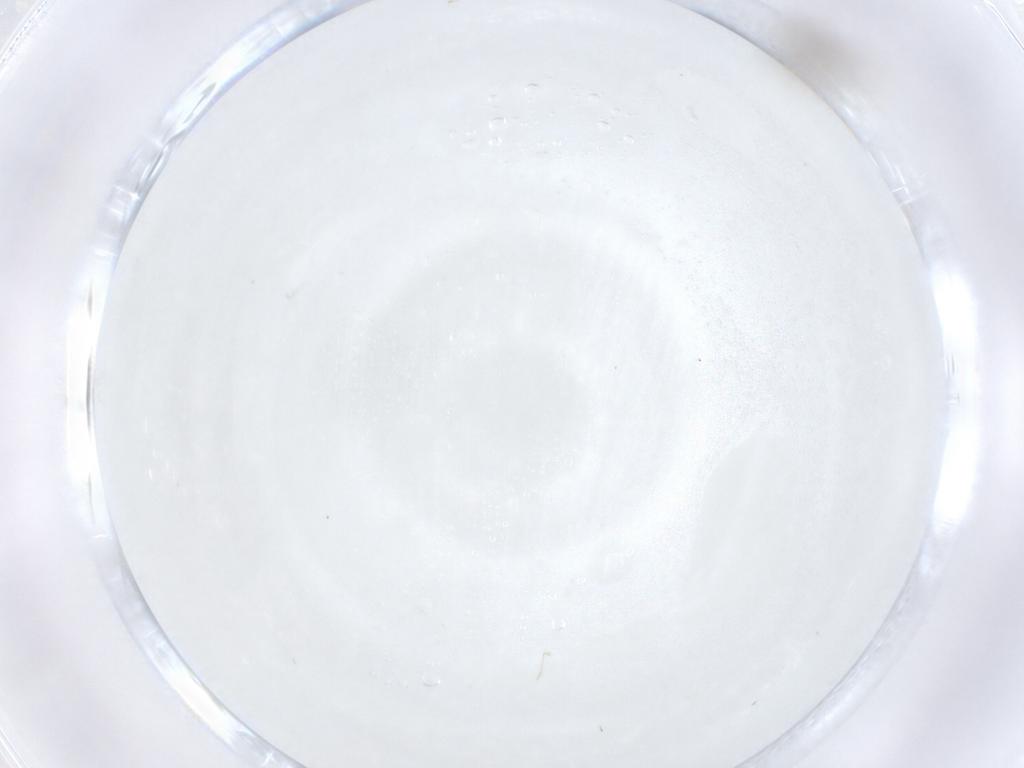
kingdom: Animalia
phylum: Arthropoda
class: Insecta
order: Diptera
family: Cecidomyiidae
